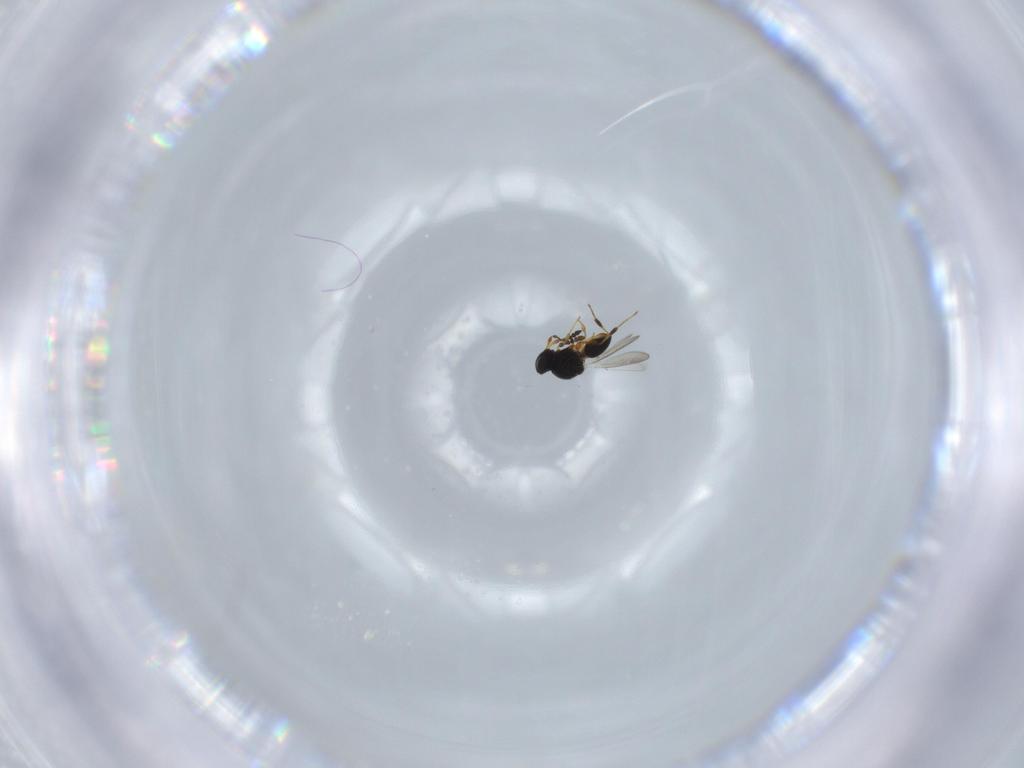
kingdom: Animalia
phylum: Arthropoda
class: Insecta
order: Hymenoptera
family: Platygastridae
